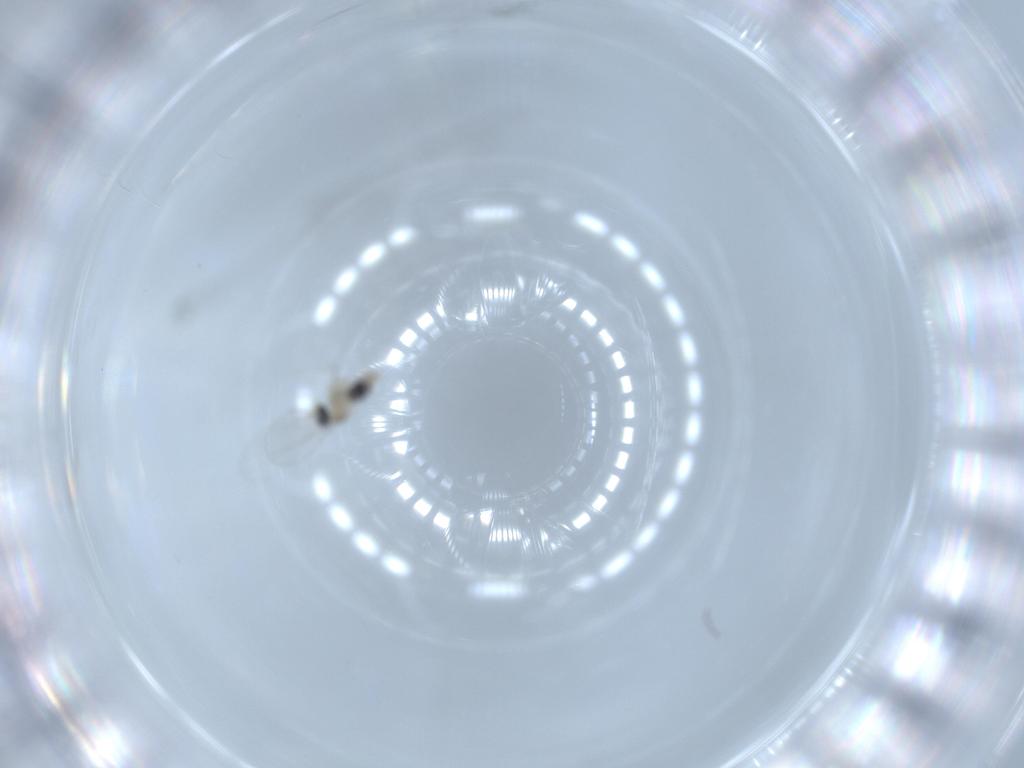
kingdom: Animalia
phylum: Arthropoda
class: Insecta
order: Diptera
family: Cecidomyiidae
